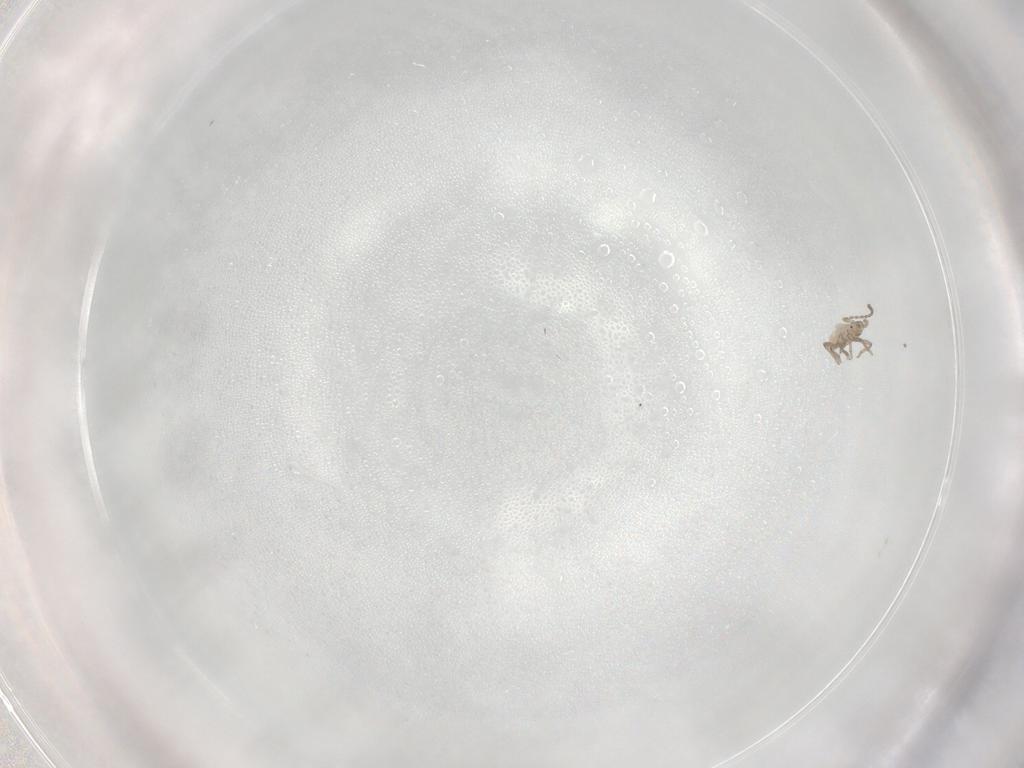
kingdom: Animalia
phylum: Arthropoda
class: Insecta
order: Hemiptera
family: Aphididae
